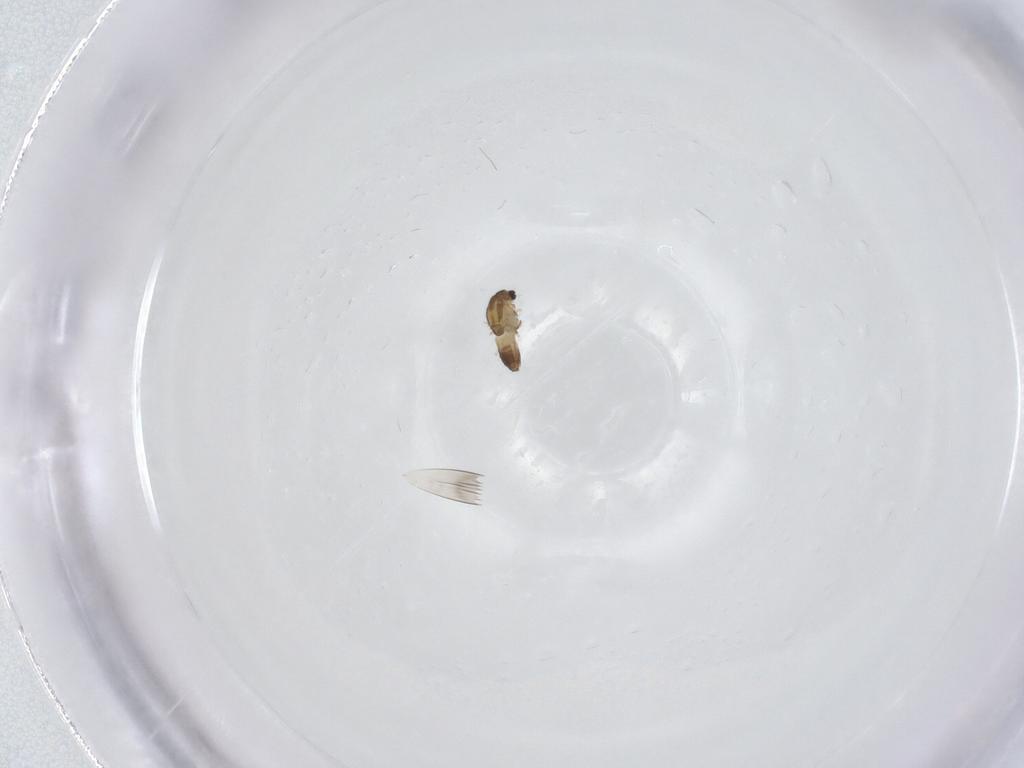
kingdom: Animalia
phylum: Arthropoda
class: Insecta
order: Diptera
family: Chironomidae
